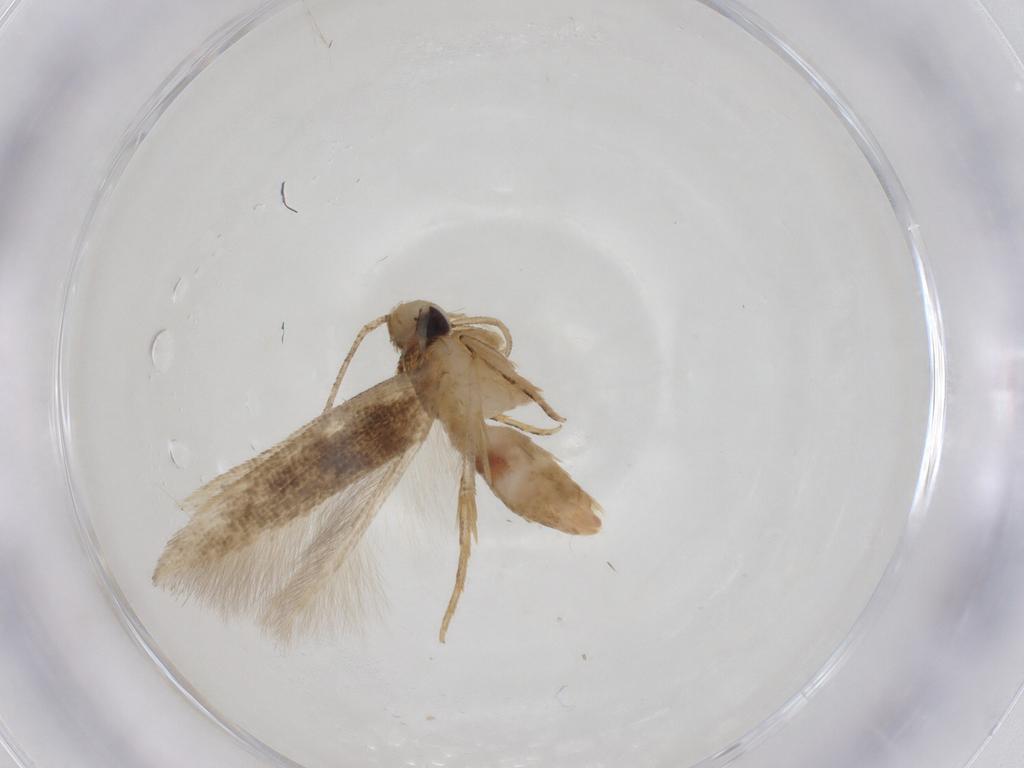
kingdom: Animalia
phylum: Arthropoda
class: Insecta
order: Lepidoptera
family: Cosmopterigidae
